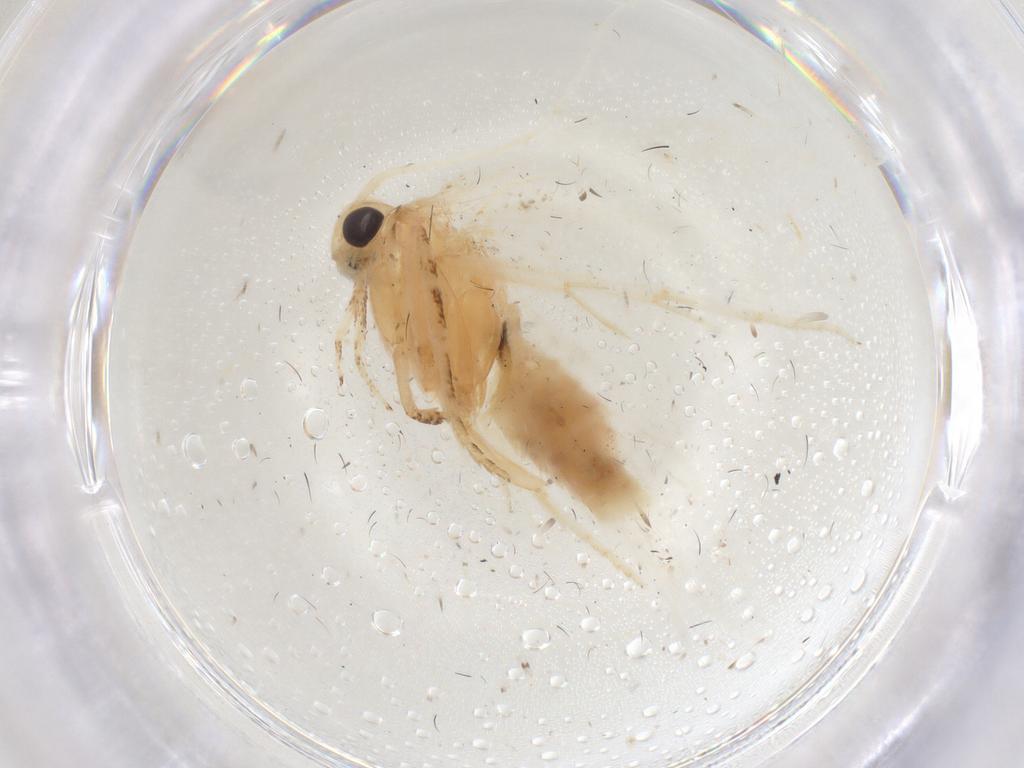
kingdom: Animalia
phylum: Arthropoda
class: Insecta
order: Lepidoptera
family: Gelechiidae
